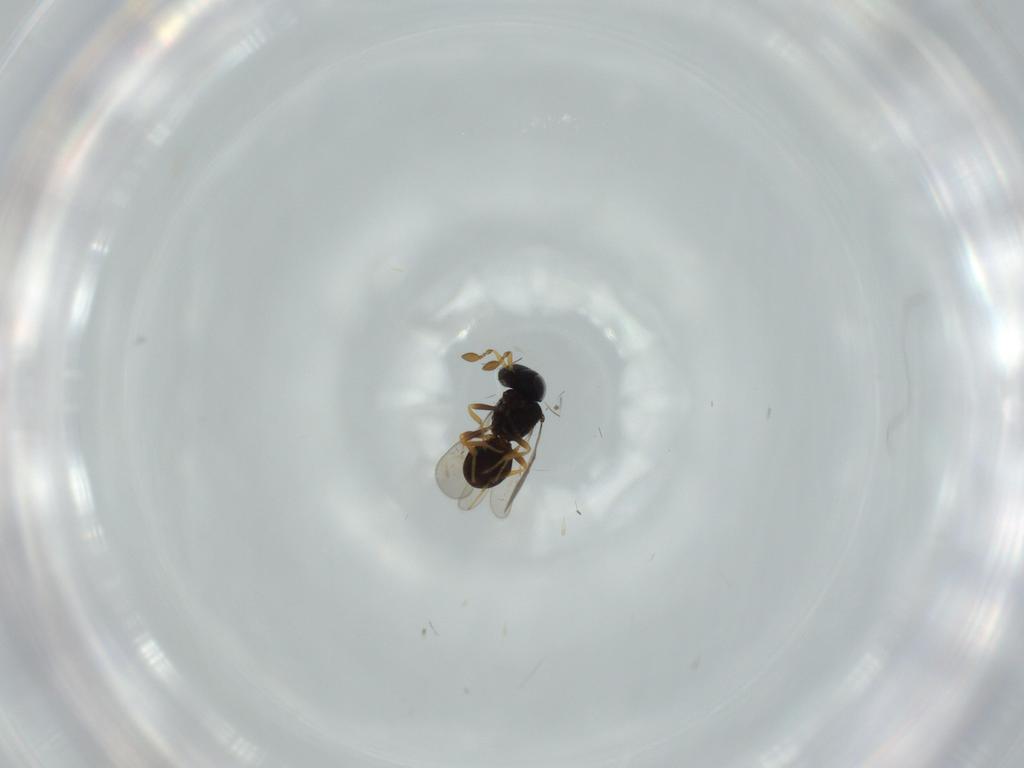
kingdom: Animalia
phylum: Arthropoda
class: Insecta
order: Hymenoptera
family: Scelionidae
